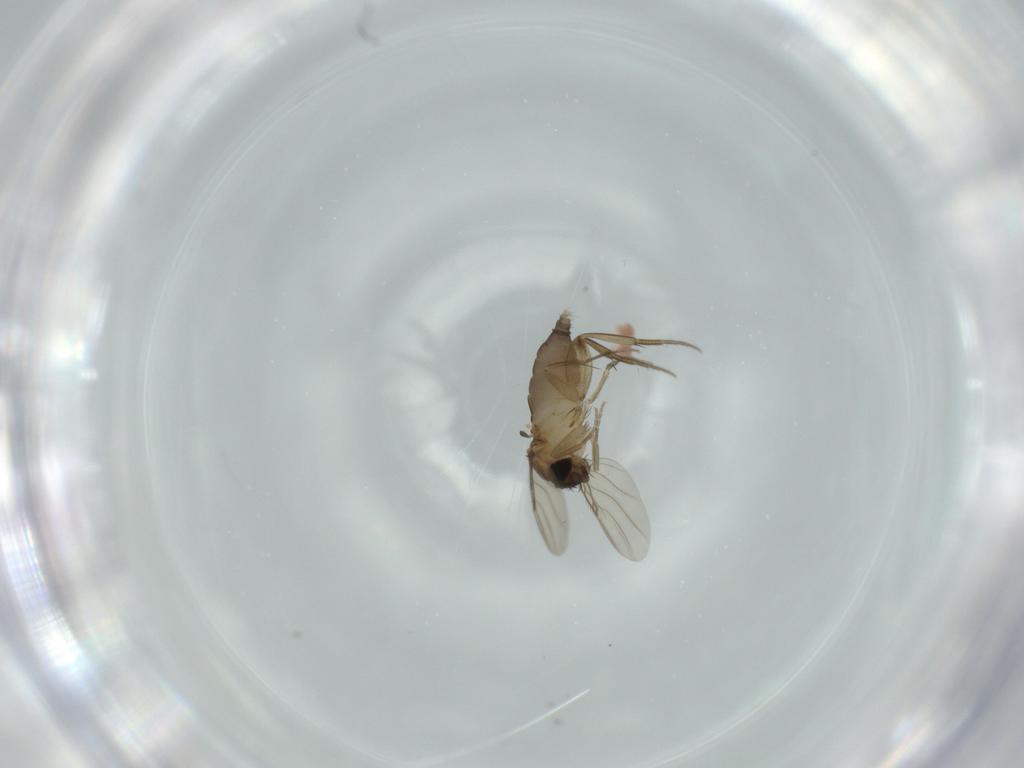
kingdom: Animalia
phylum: Arthropoda
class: Insecta
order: Diptera
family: Phoridae
